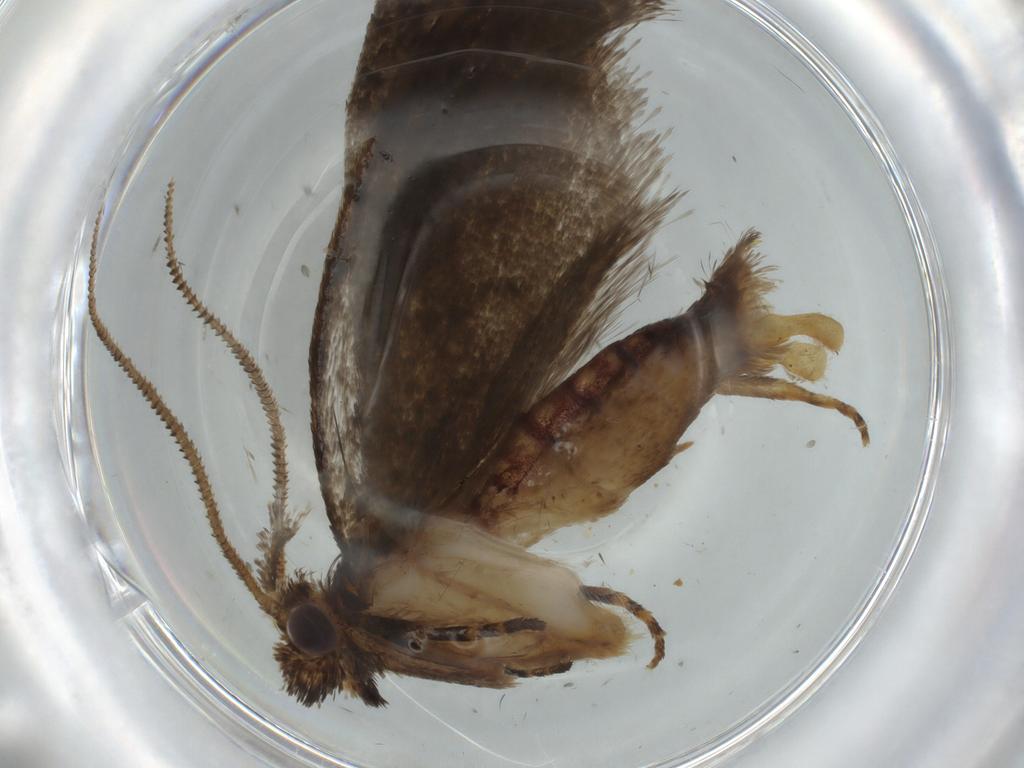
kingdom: Animalia
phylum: Arthropoda
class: Insecta
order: Lepidoptera
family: Tineidae
